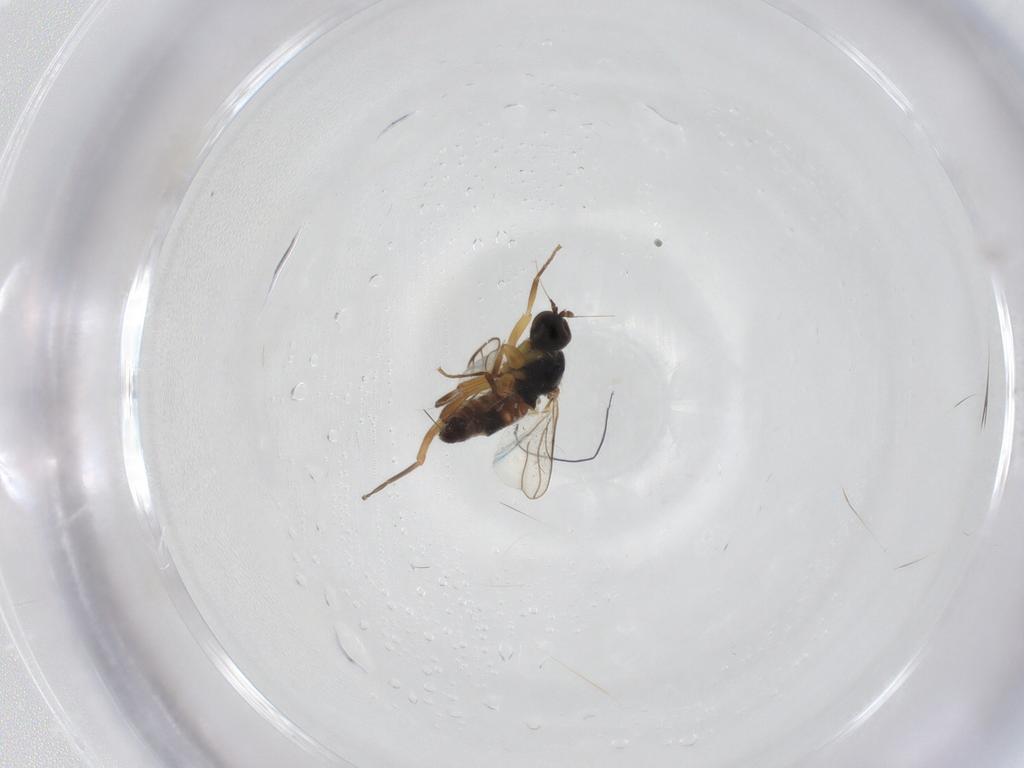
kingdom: Animalia
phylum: Arthropoda
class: Insecta
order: Diptera
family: Hybotidae
